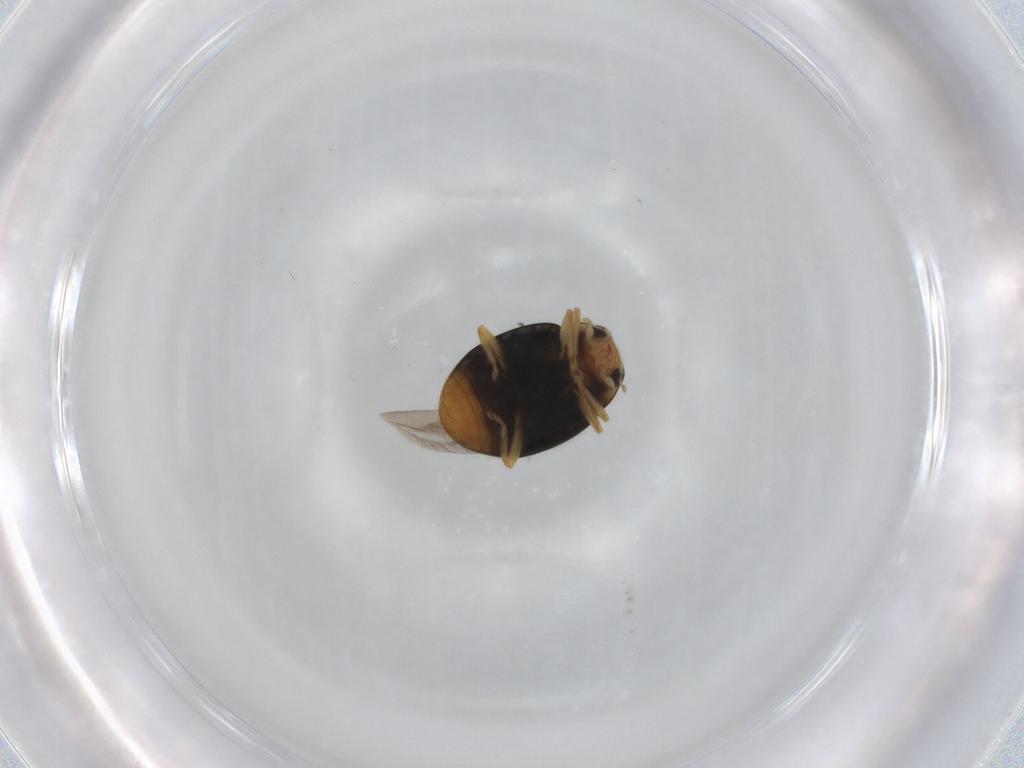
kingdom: Animalia
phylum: Arthropoda
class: Insecta
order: Coleoptera
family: Coccinellidae
